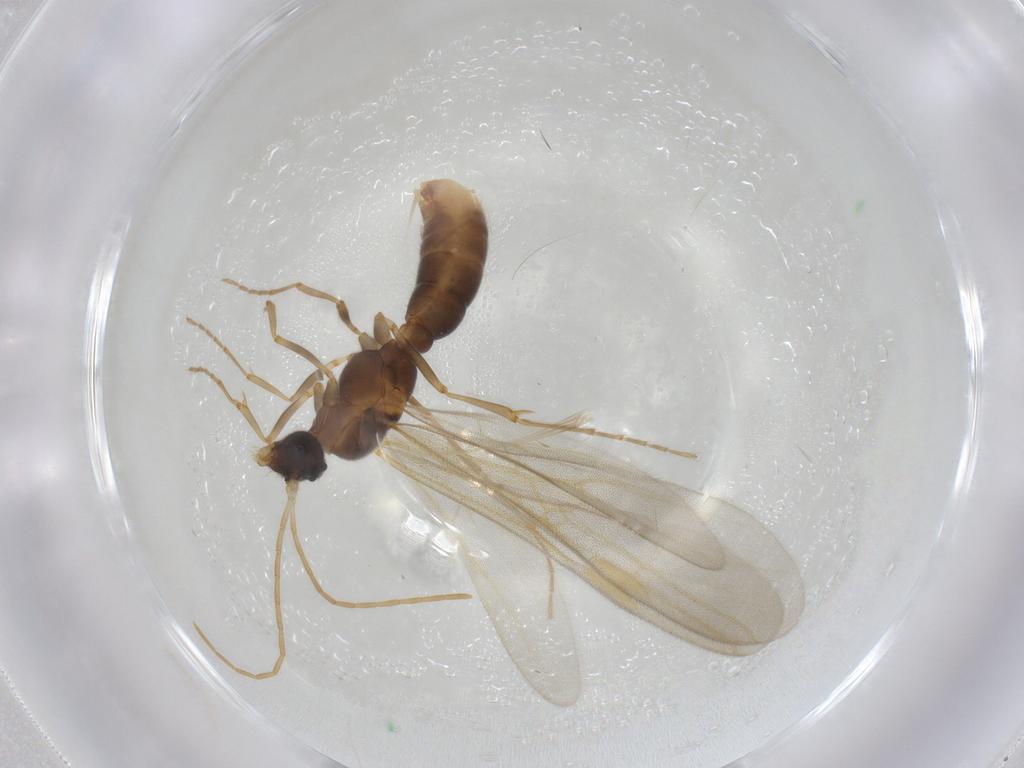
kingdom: Animalia
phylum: Arthropoda
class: Insecta
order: Hymenoptera
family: Formicidae
